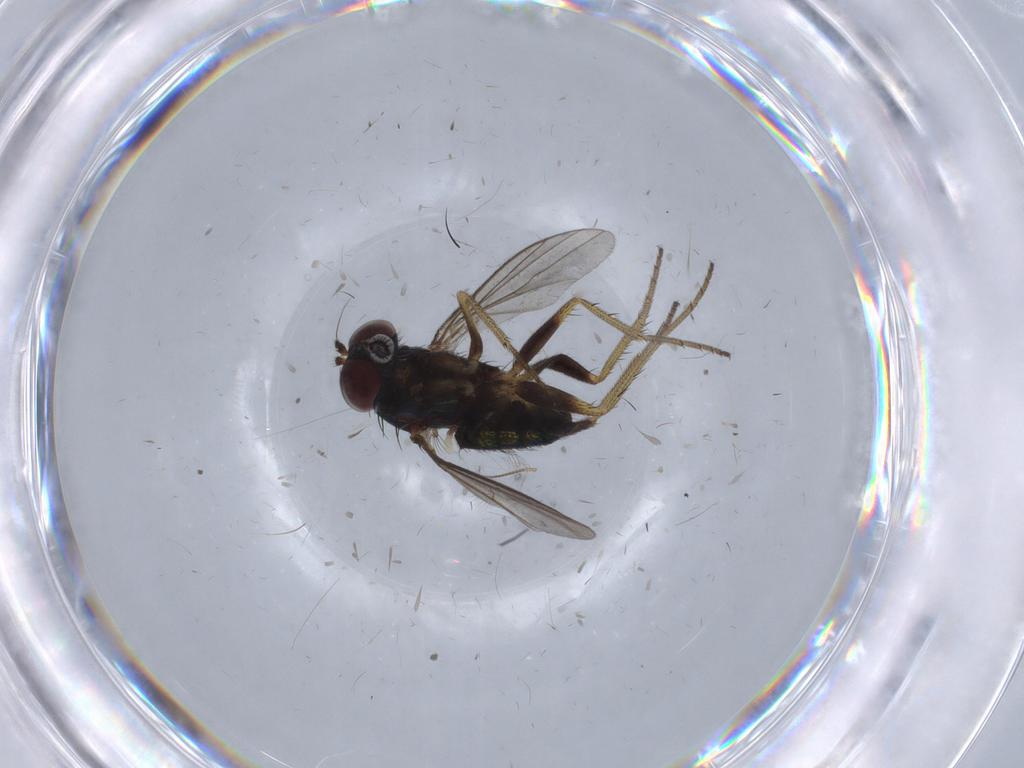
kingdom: Animalia
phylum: Arthropoda
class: Insecta
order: Diptera
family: Dolichopodidae
